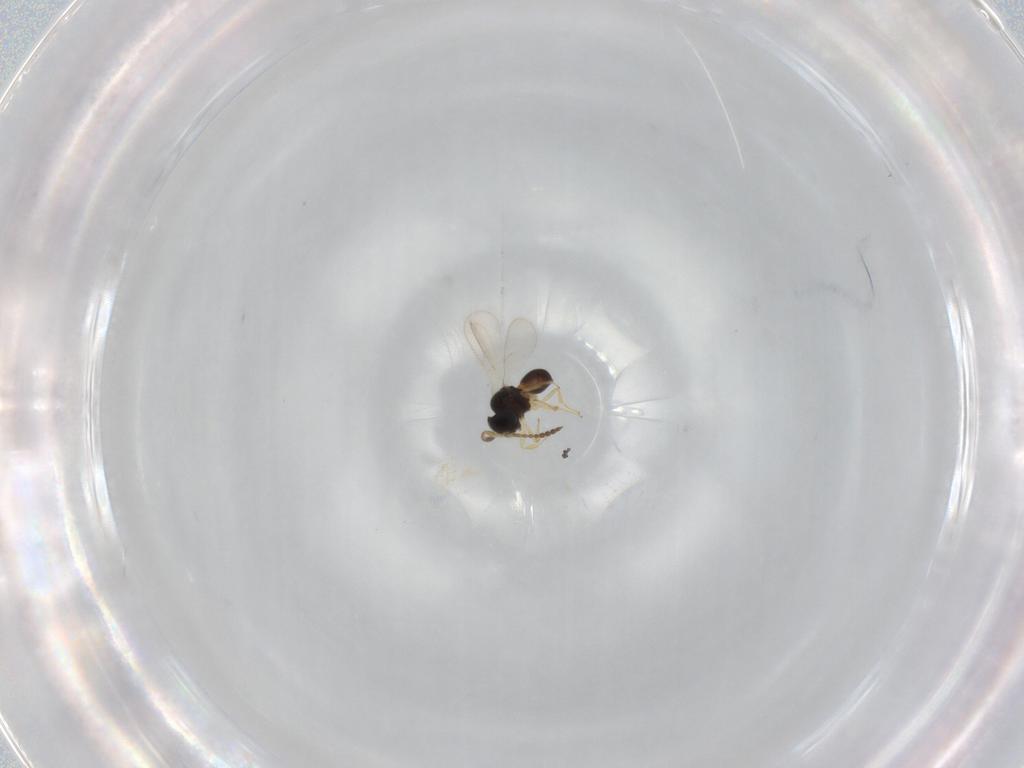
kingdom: Animalia
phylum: Arthropoda
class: Insecta
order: Hymenoptera
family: Scelionidae
